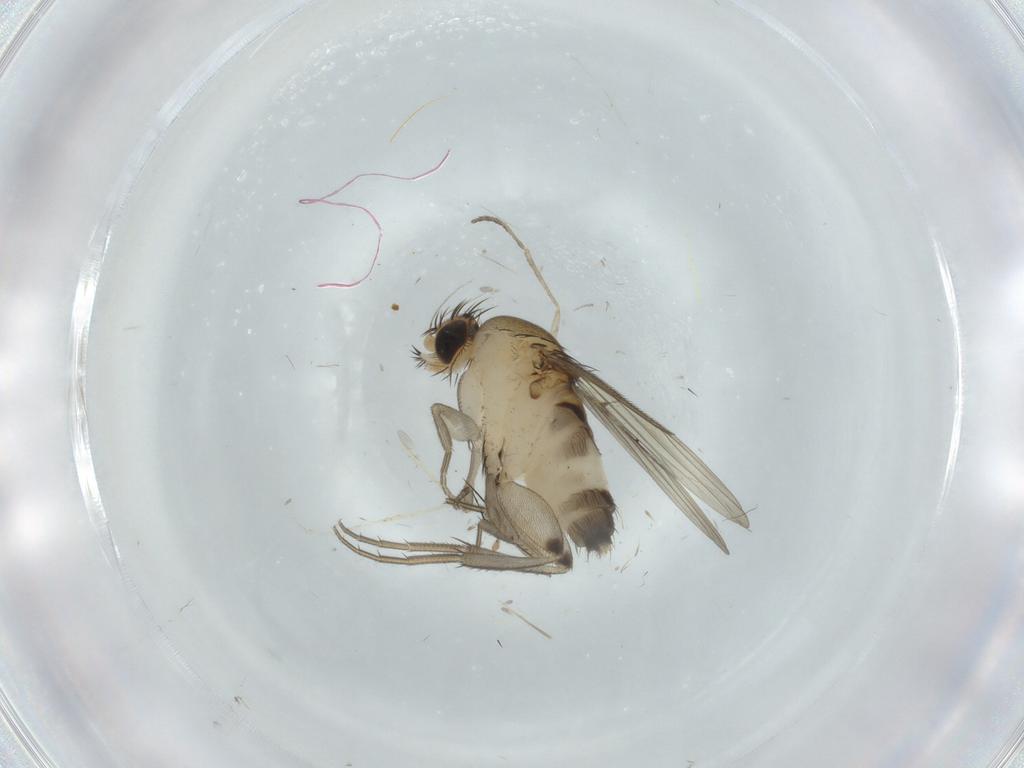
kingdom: Animalia
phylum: Arthropoda
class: Insecta
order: Diptera
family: Phoridae
